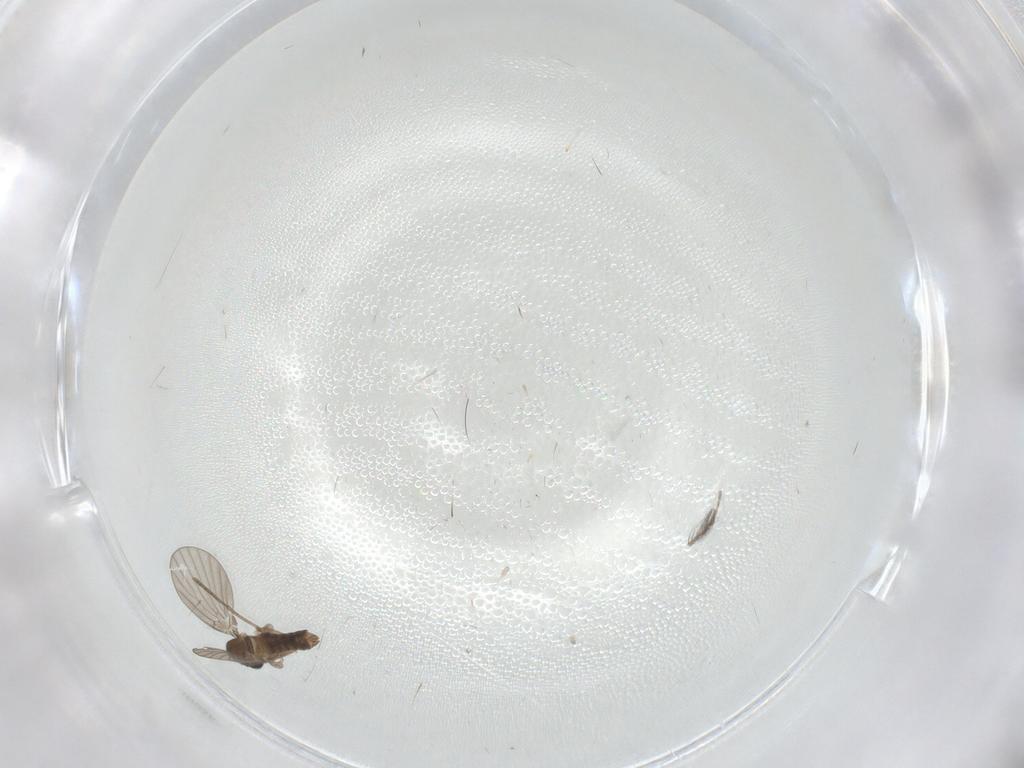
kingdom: Animalia
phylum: Arthropoda
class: Insecta
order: Diptera
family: Ceratopogonidae
